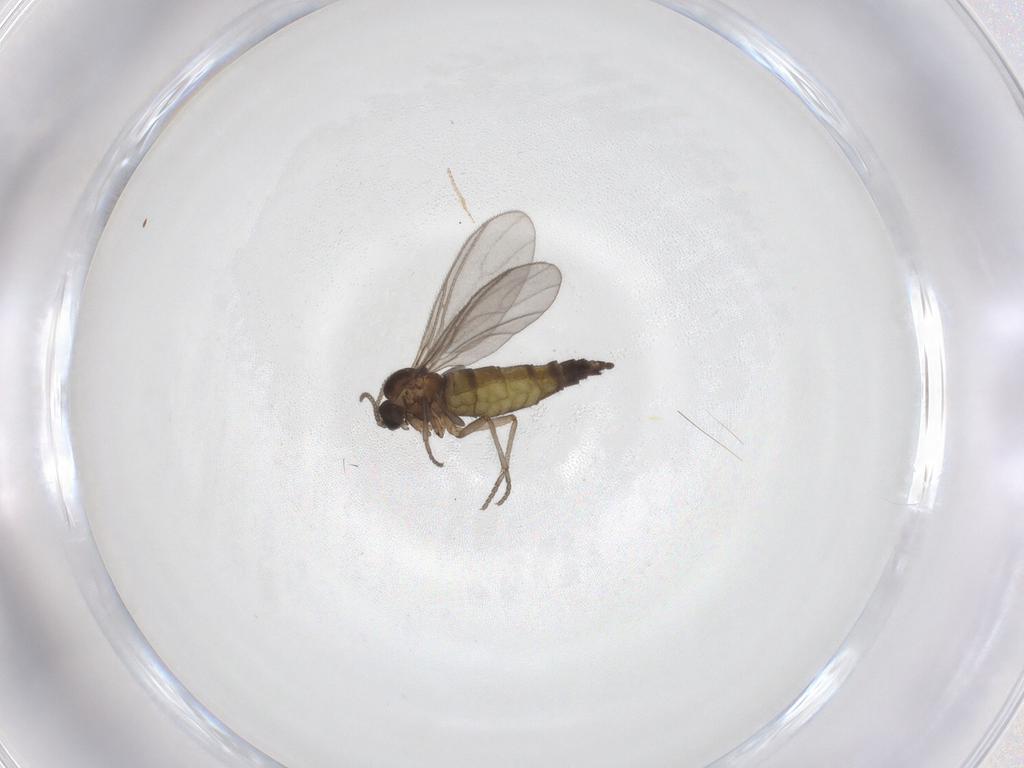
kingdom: Animalia
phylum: Arthropoda
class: Insecta
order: Diptera
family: Sciaridae
